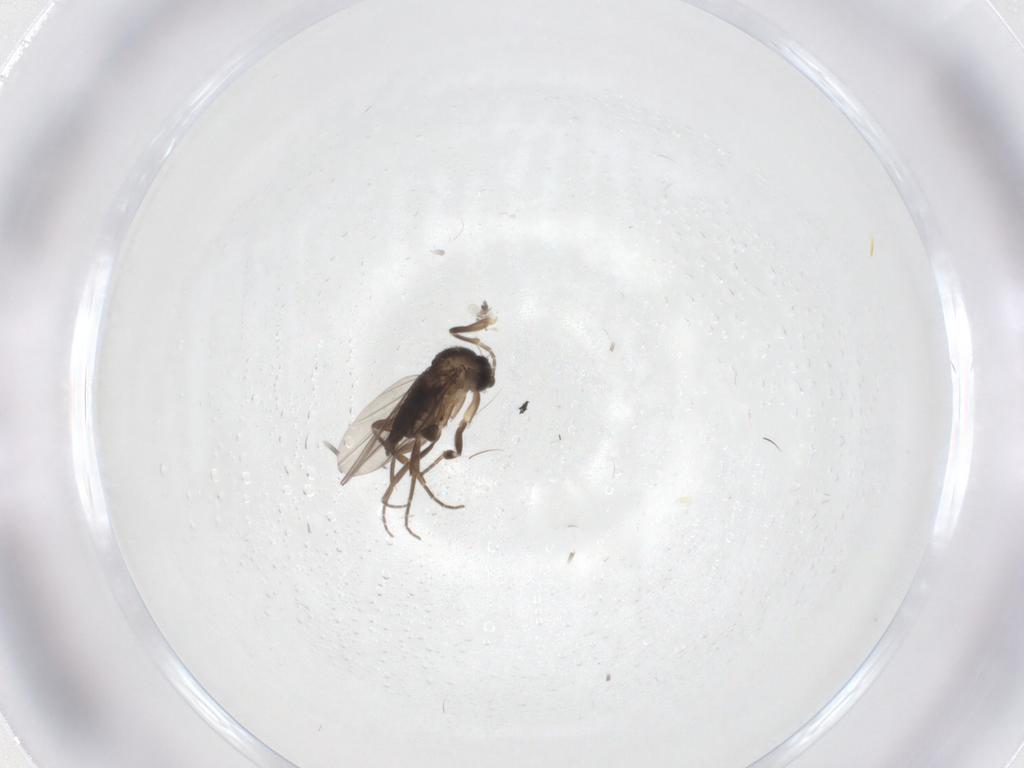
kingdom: Animalia
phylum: Arthropoda
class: Insecta
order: Diptera
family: Phoridae
